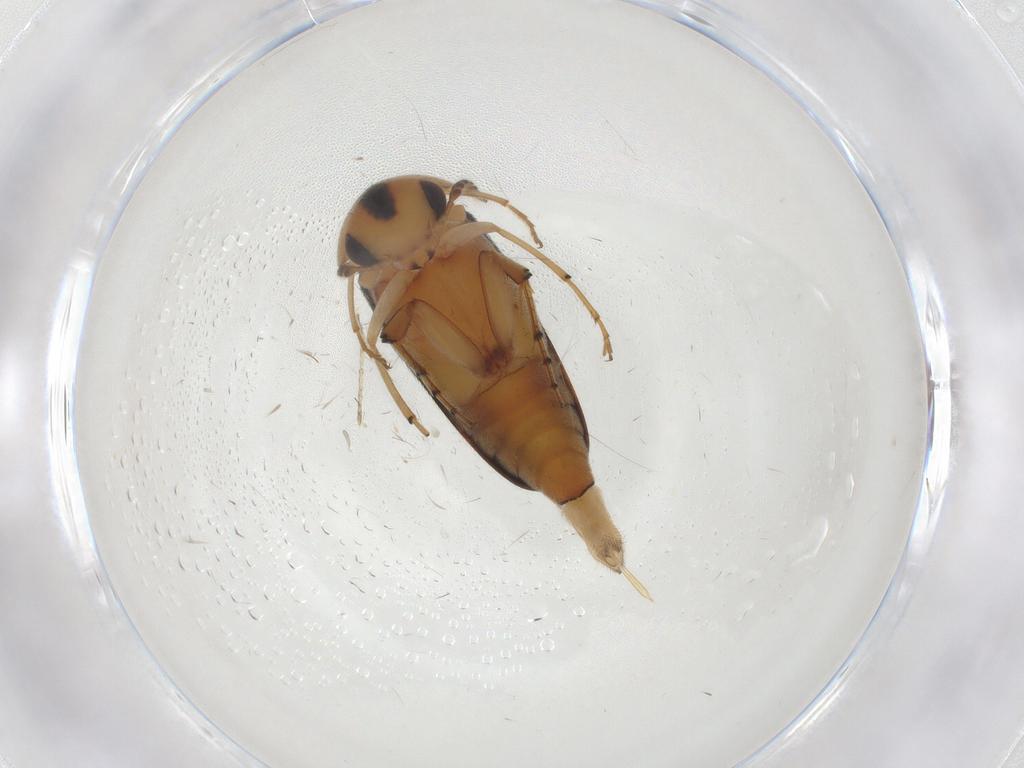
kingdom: Animalia
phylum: Arthropoda
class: Insecta
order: Coleoptera
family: Mordellidae
